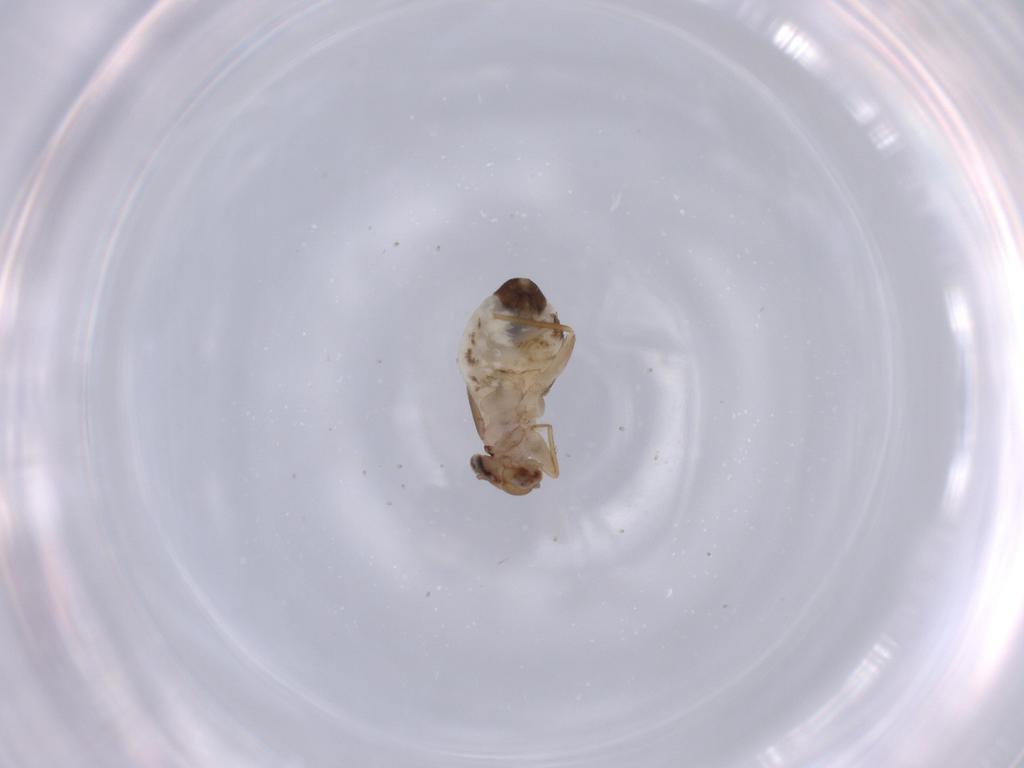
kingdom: Animalia
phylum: Arthropoda
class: Insecta
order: Psocodea
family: Lepidopsocidae
